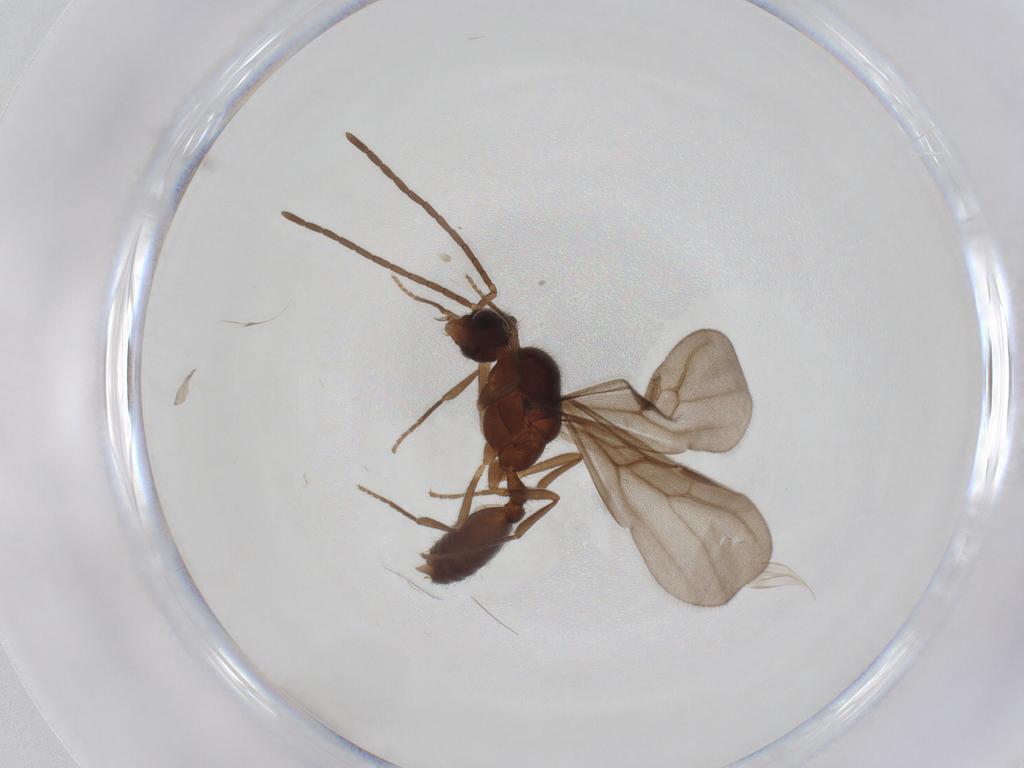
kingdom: Animalia
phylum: Arthropoda
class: Insecta
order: Hymenoptera
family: Formicidae
